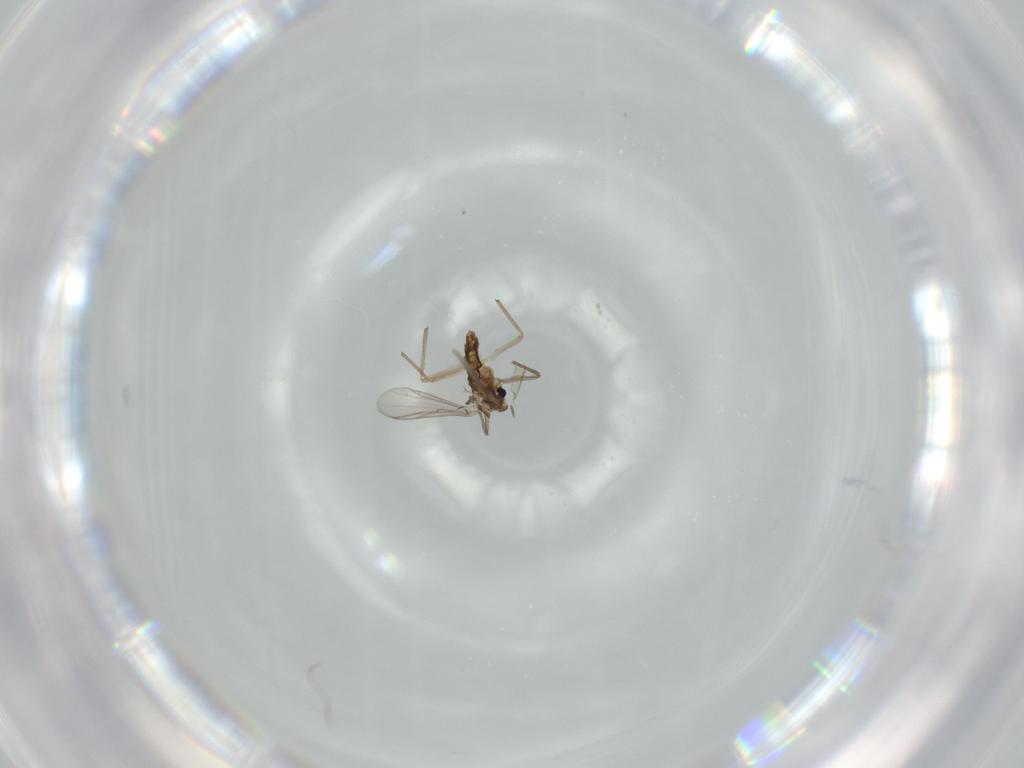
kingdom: Animalia
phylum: Arthropoda
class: Insecta
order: Diptera
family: Chironomidae
